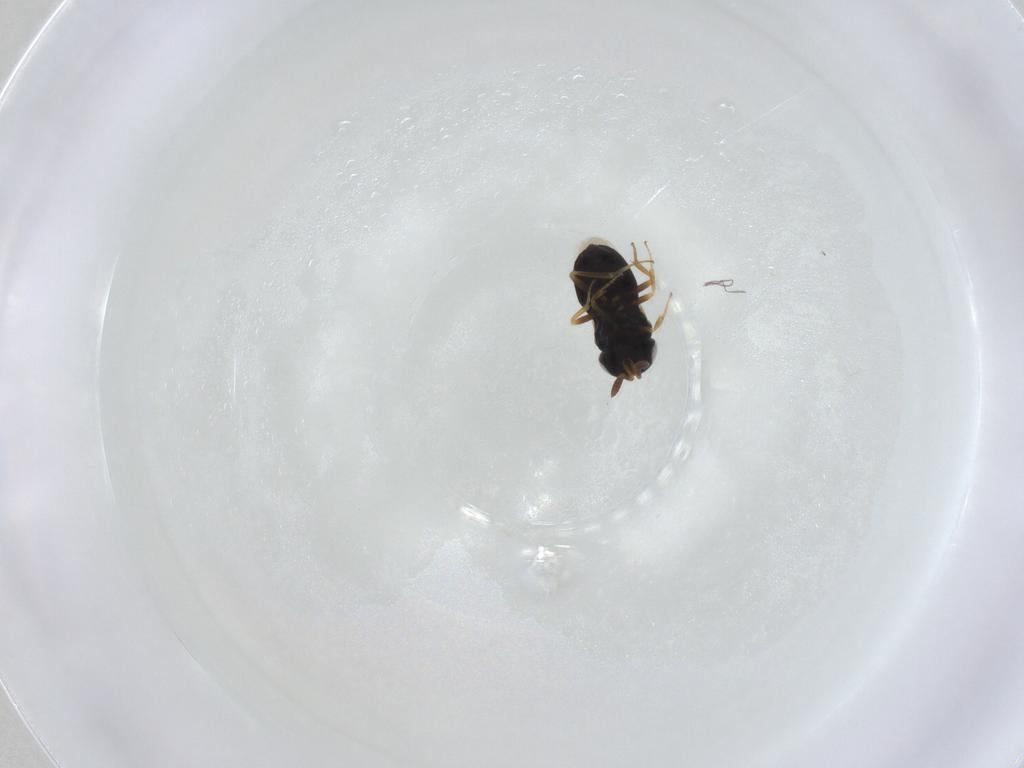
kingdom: Animalia
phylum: Arthropoda
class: Insecta
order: Hymenoptera
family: Scelionidae
